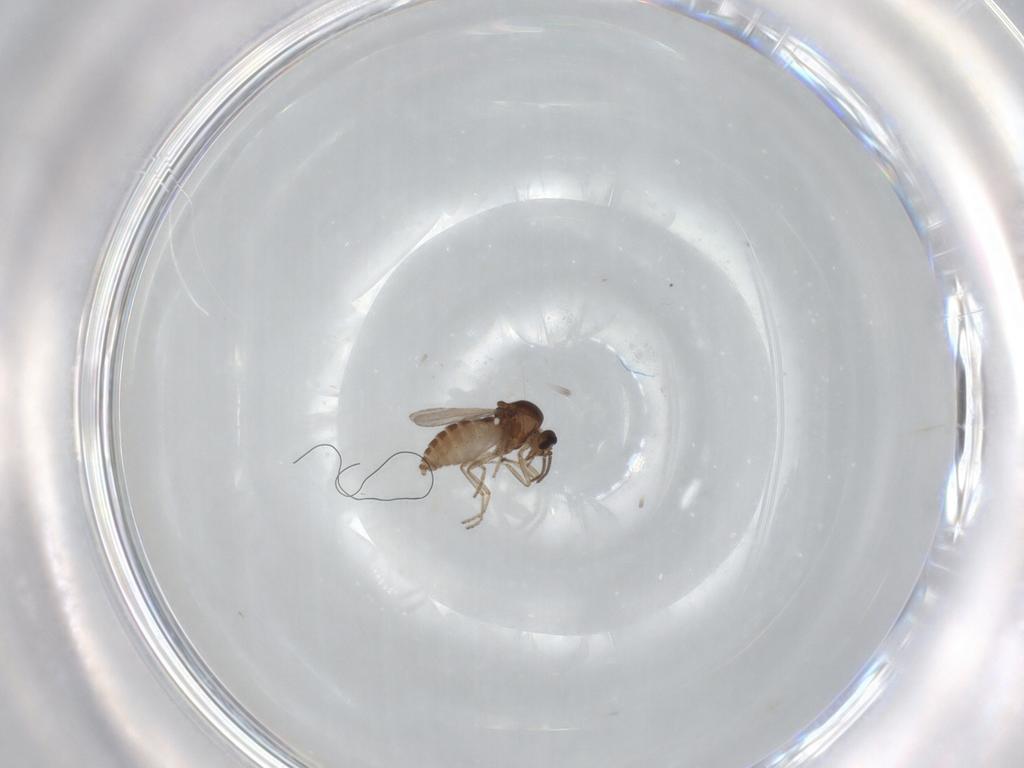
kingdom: Animalia
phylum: Arthropoda
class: Insecta
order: Diptera
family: Ceratopogonidae
